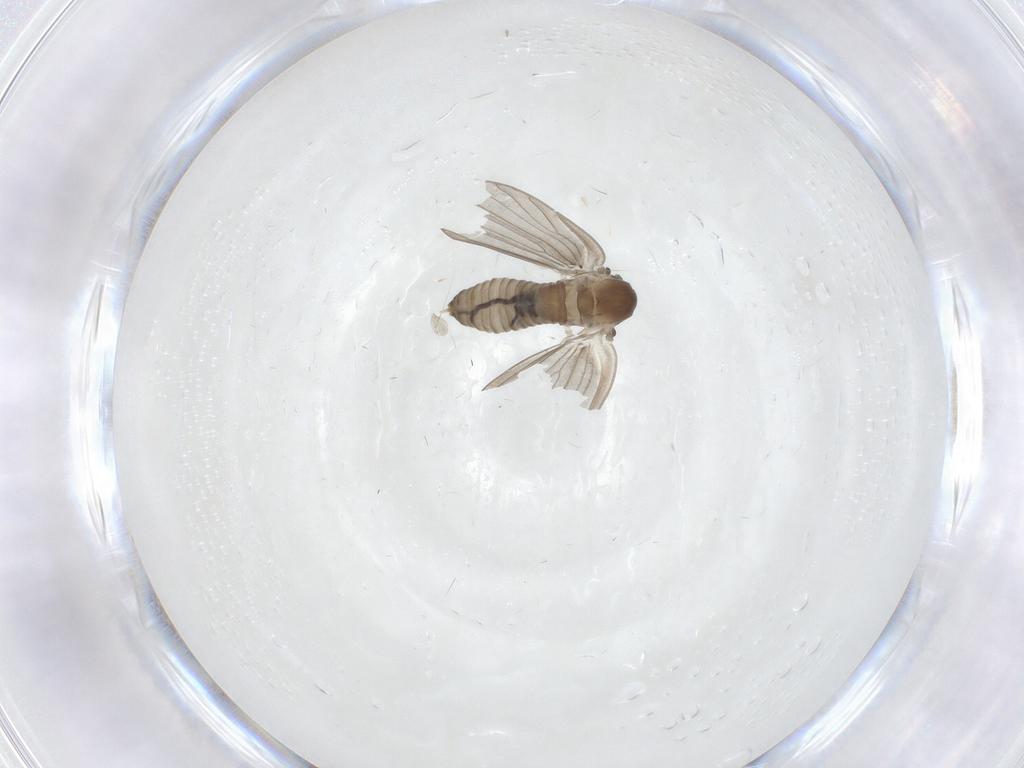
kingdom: Animalia
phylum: Arthropoda
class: Insecta
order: Diptera
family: Psychodidae
